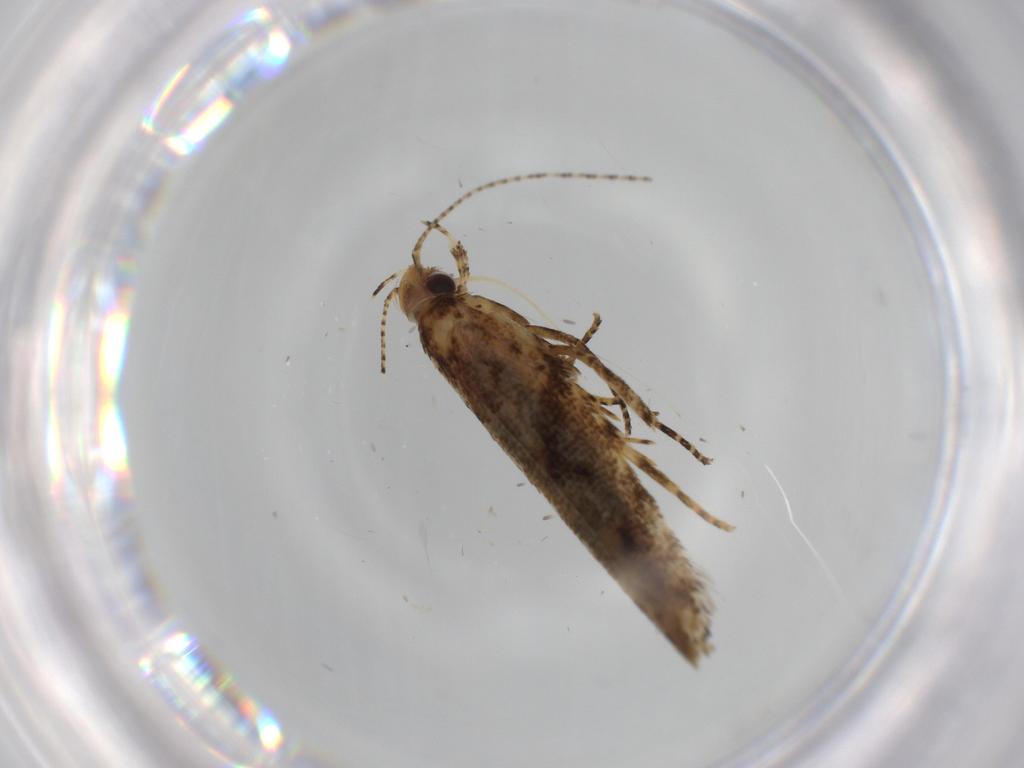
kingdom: Animalia
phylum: Arthropoda
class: Insecta
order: Lepidoptera
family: Gelechiidae
